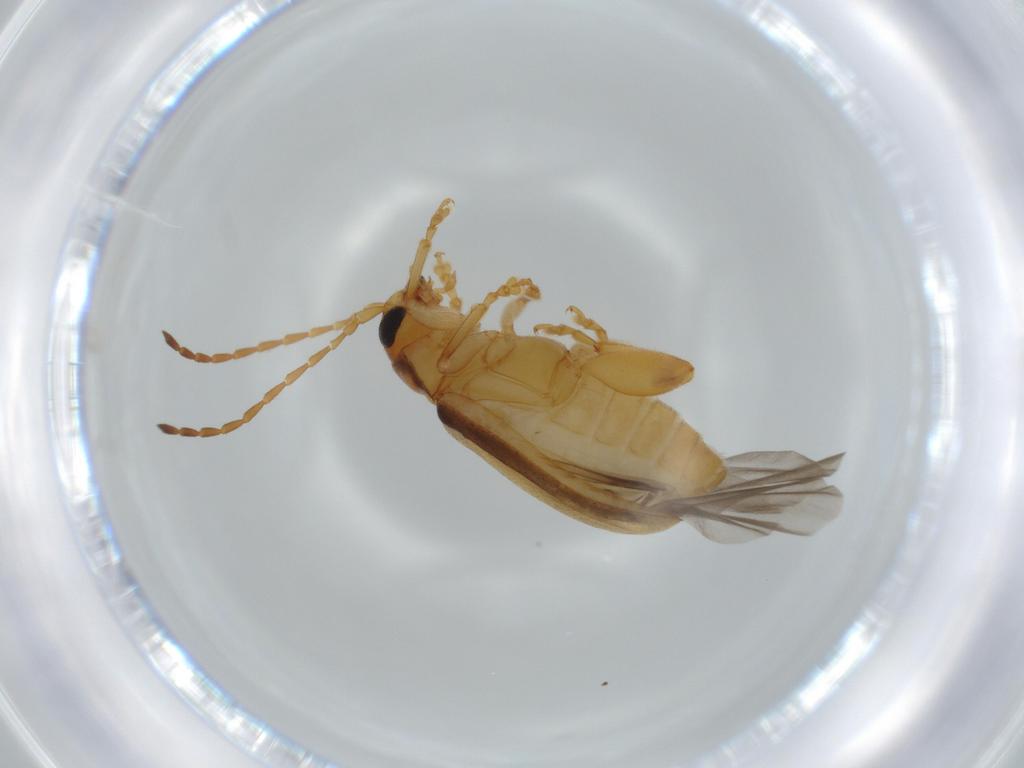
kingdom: Animalia
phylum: Arthropoda
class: Insecta
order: Coleoptera
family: Chrysomelidae
